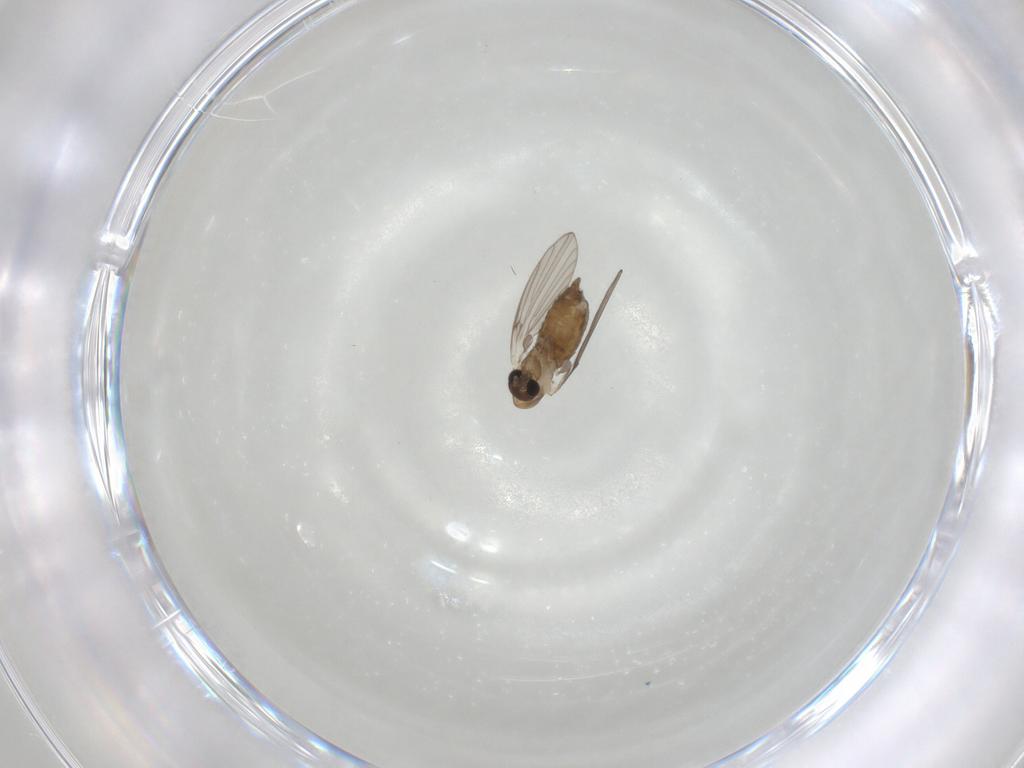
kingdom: Animalia
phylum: Arthropoda
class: Insecta
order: Diptera
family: Psychodidae
